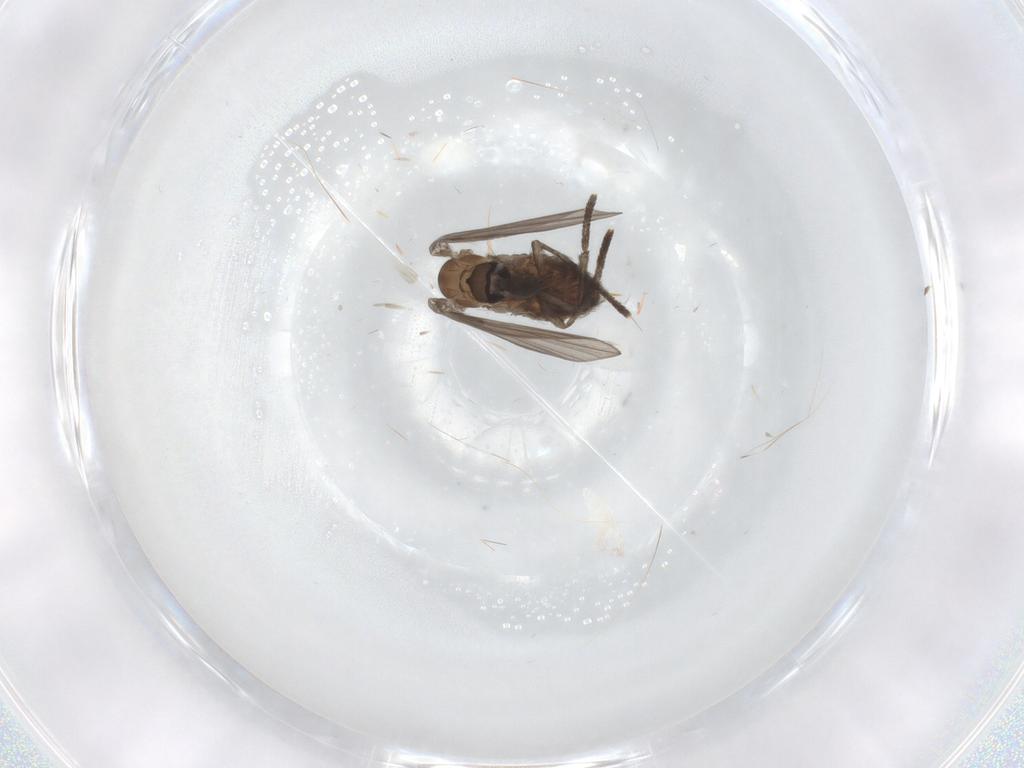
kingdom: Animalia
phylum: Arthropoda
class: Insecta
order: Diptera
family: Psychodidae
